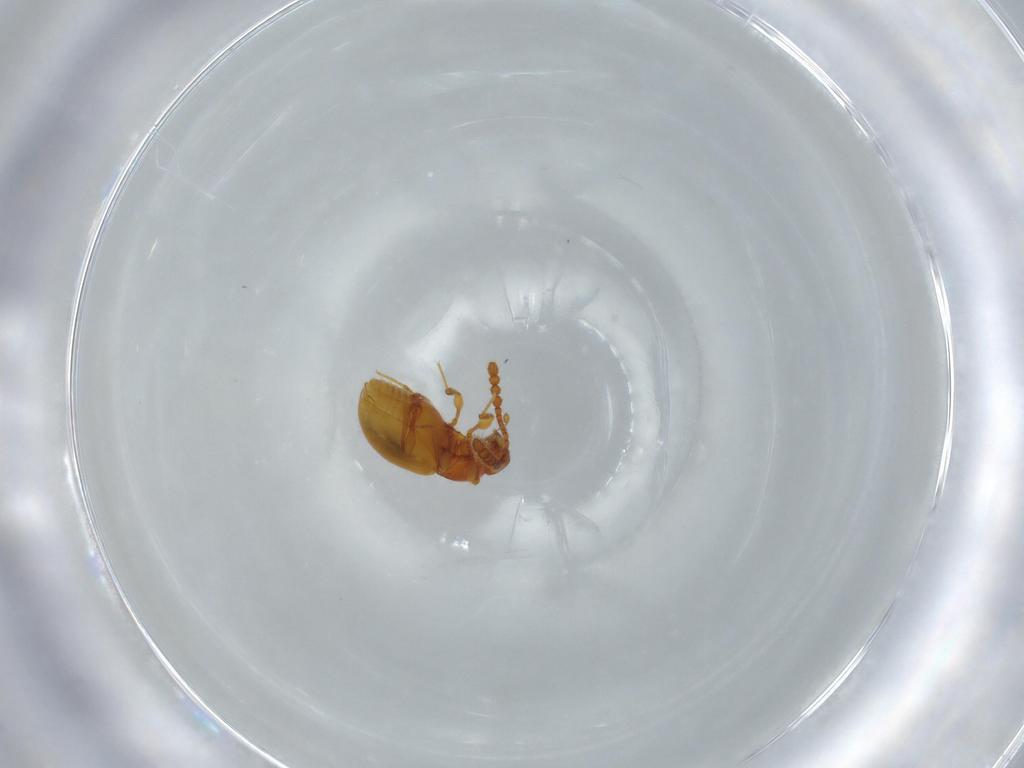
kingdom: Animalia
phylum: Arthropoda
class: Insecta
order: Coleoptera
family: Staphylinidae
